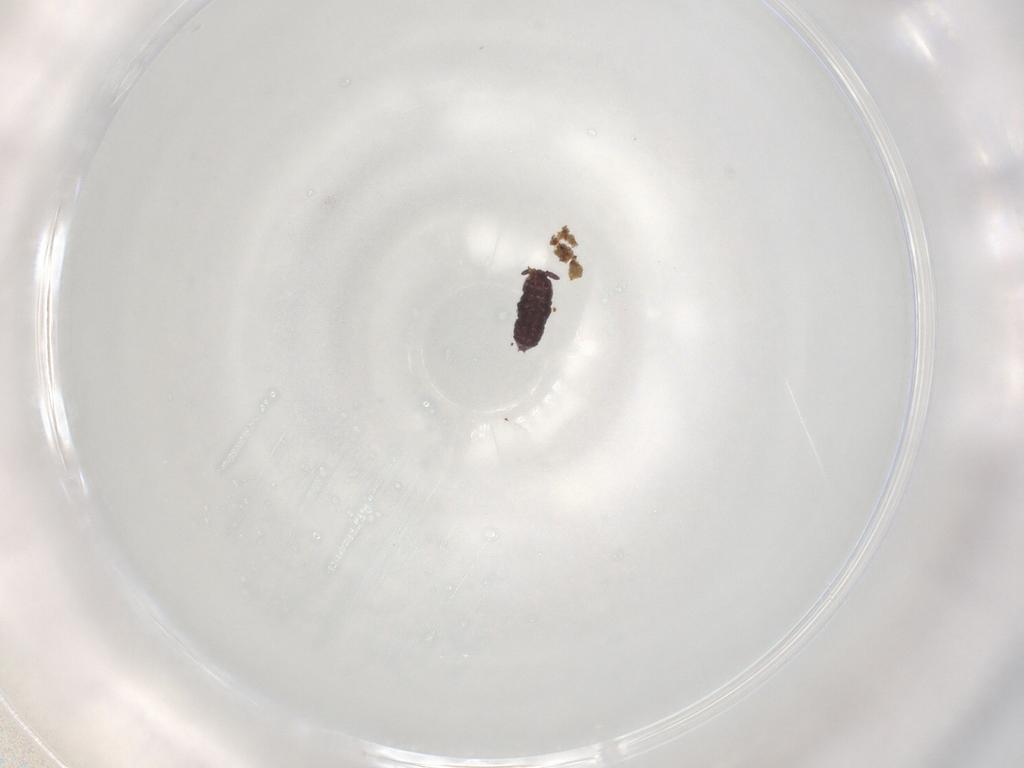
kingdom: Animalia
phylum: Arthropoda
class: Collembola
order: Poduromorpha
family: Hypogastruridae
